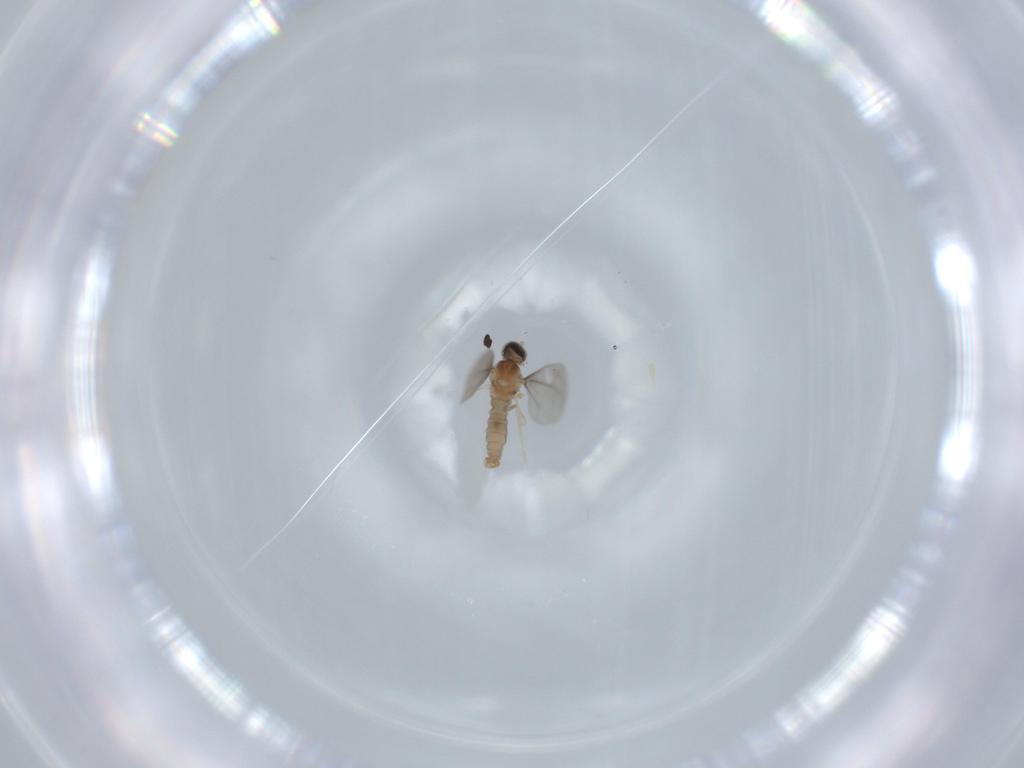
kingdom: Animalia
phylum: Arthropoda
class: Insecta
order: Diptera
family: Cecidomyiidae
